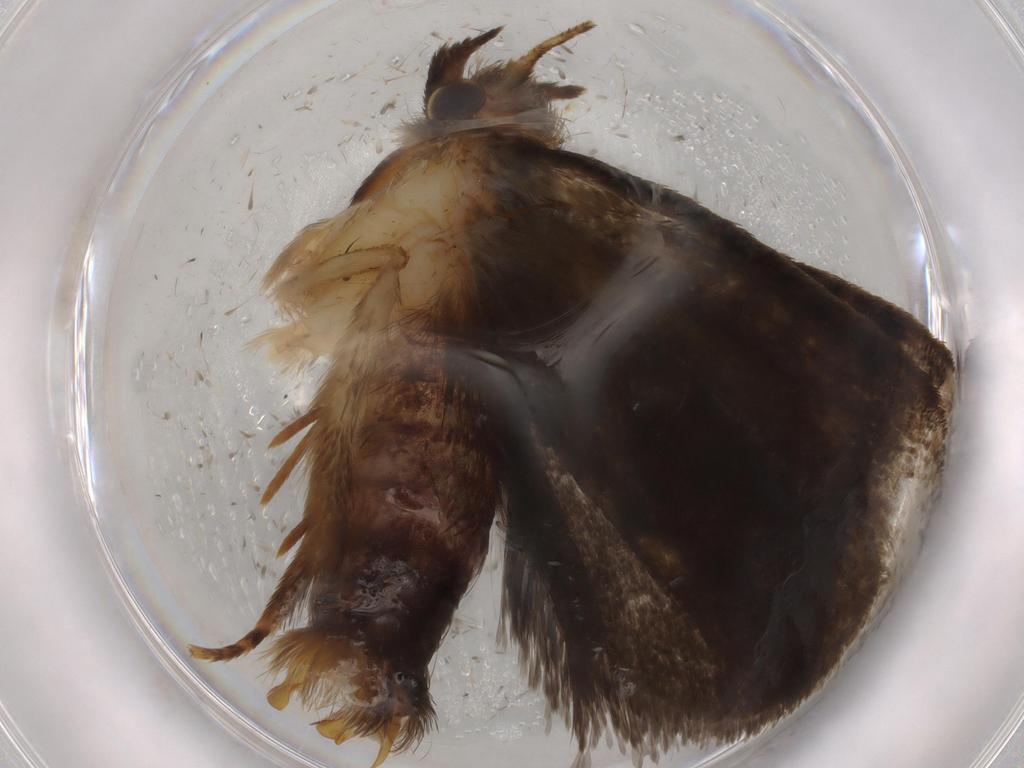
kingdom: Animalia
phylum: Arthropoda
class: Insecta
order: Lepidoptera
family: Tineidae
